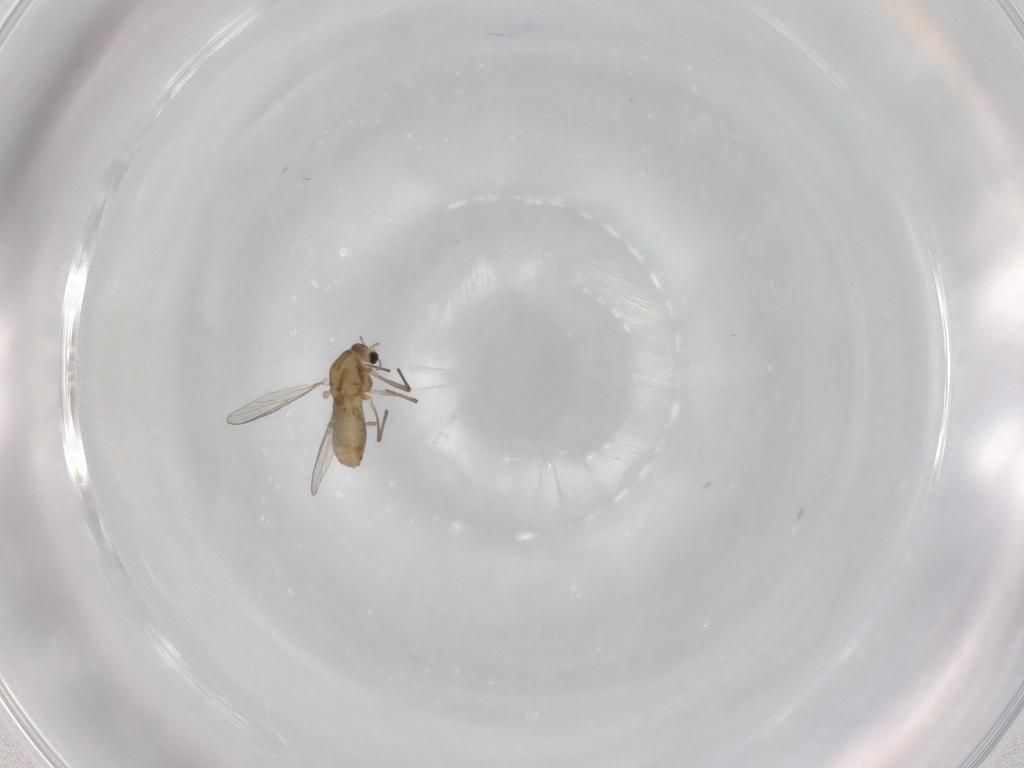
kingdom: Animalia
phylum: Arthropoda
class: Insecta
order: Diptera
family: Chironomidae
